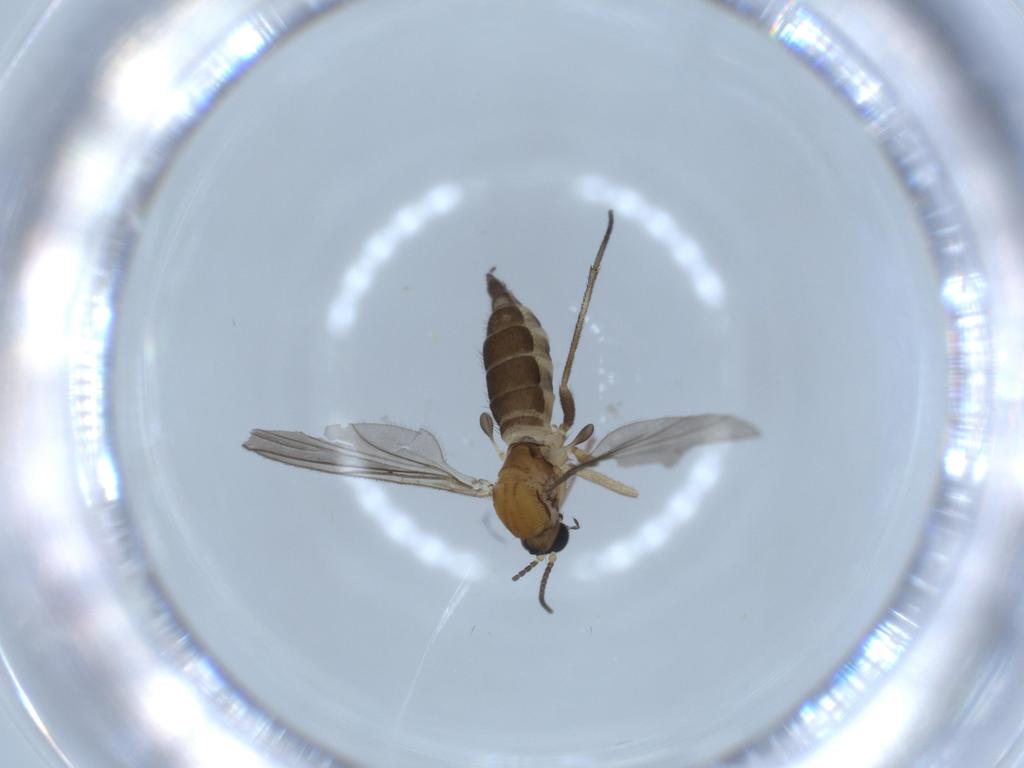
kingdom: Animalia
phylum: Arthropoda
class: Insecta
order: Diptera
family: Sciaridae
